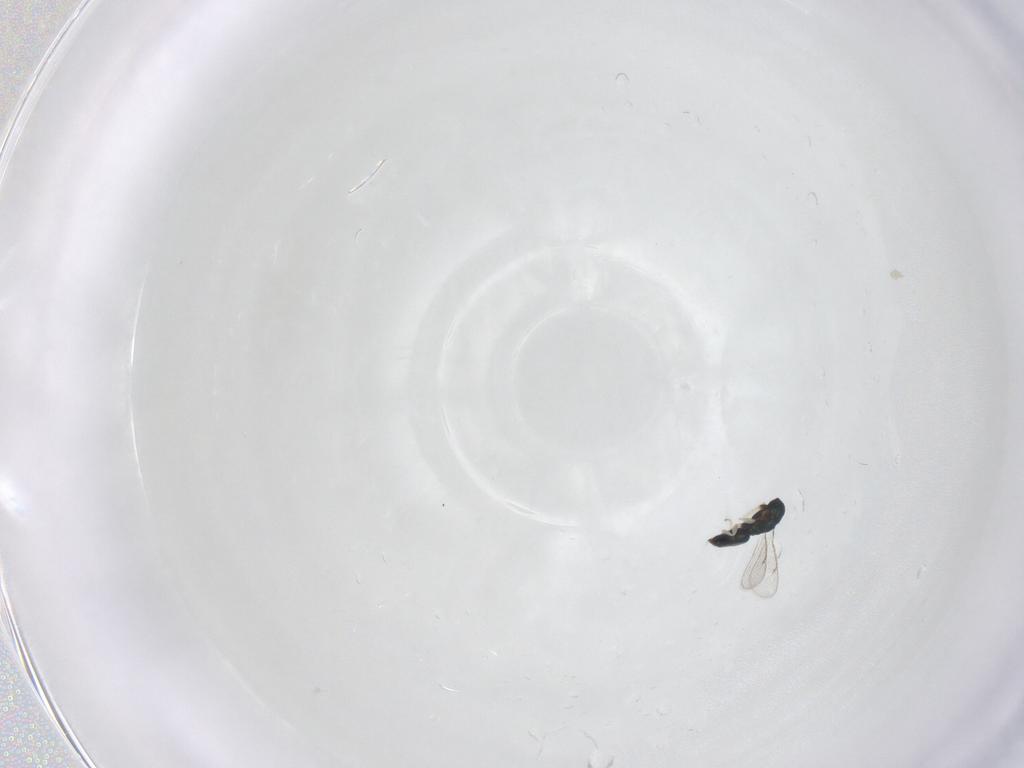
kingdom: Animalia
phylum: Arthropoda
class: Insecta
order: Hymenoptera
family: Eulophidae
